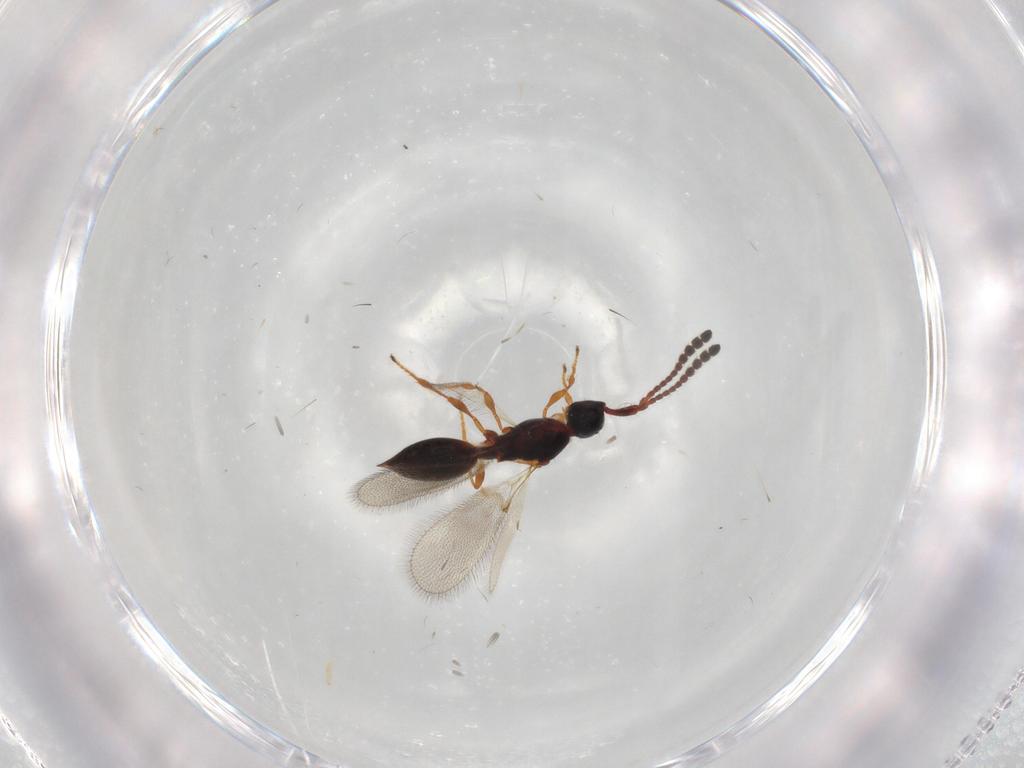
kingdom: Animalia
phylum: Arthropoda
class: Insecta
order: Hymenoptera
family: Diapriidae
